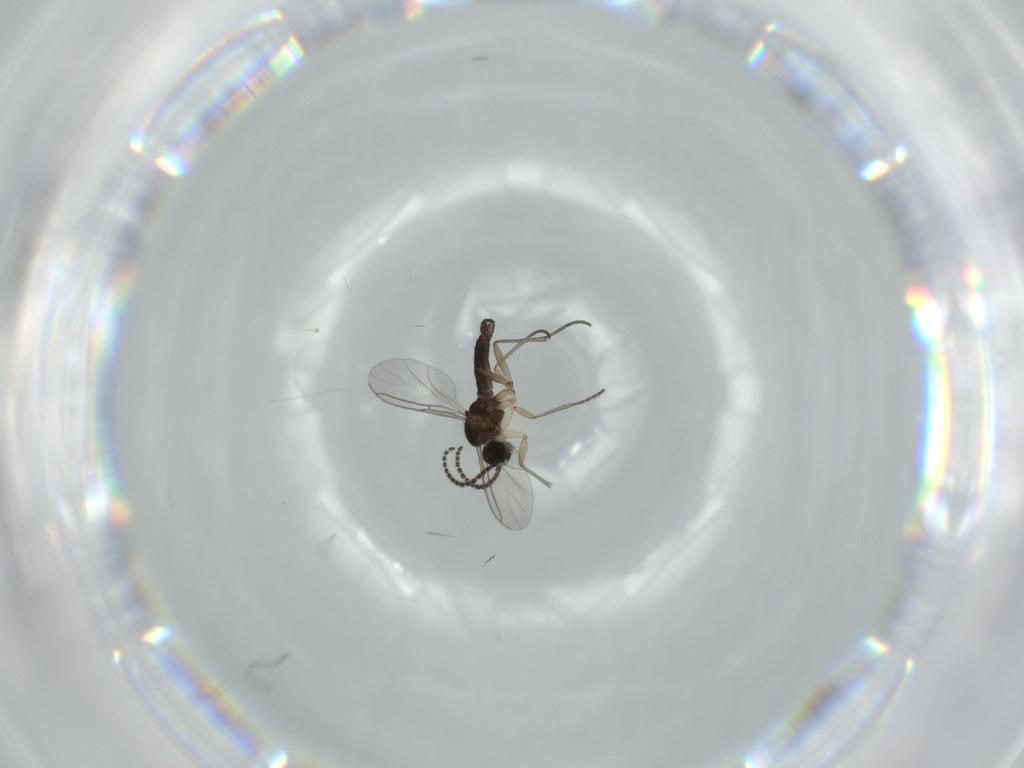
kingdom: Animalia
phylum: Arthropoda
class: Insecta
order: Diptera
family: Sciaridae
